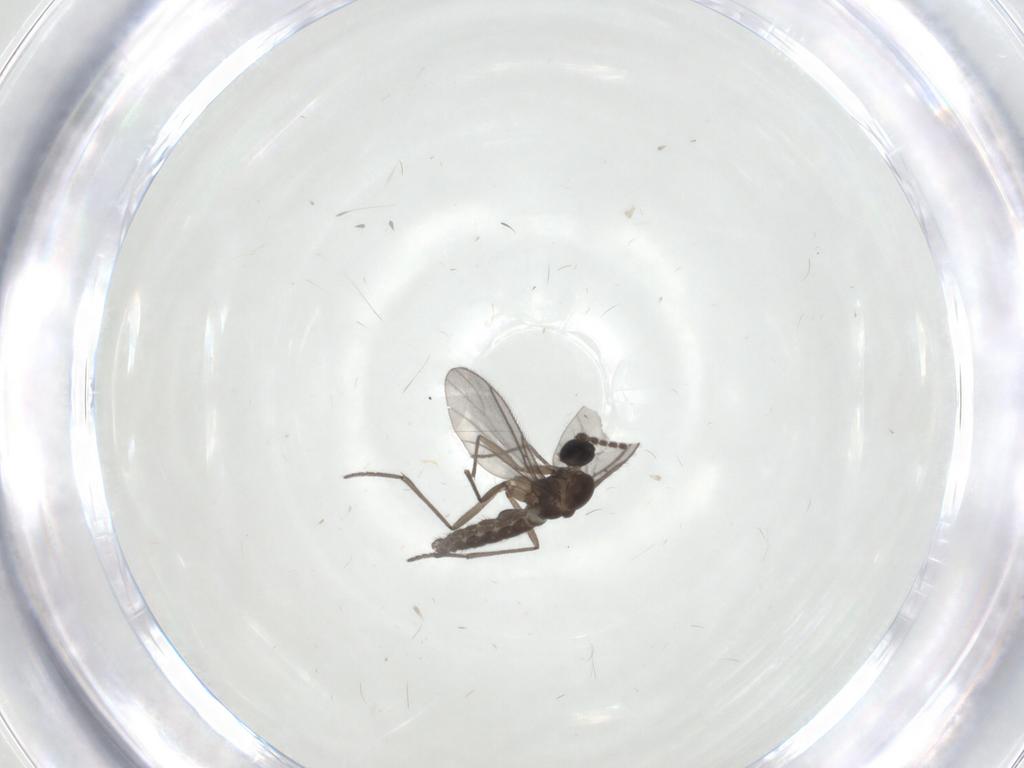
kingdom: Animalia
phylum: Arthropoda
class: Insecta
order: Diptera
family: Sciaridae
